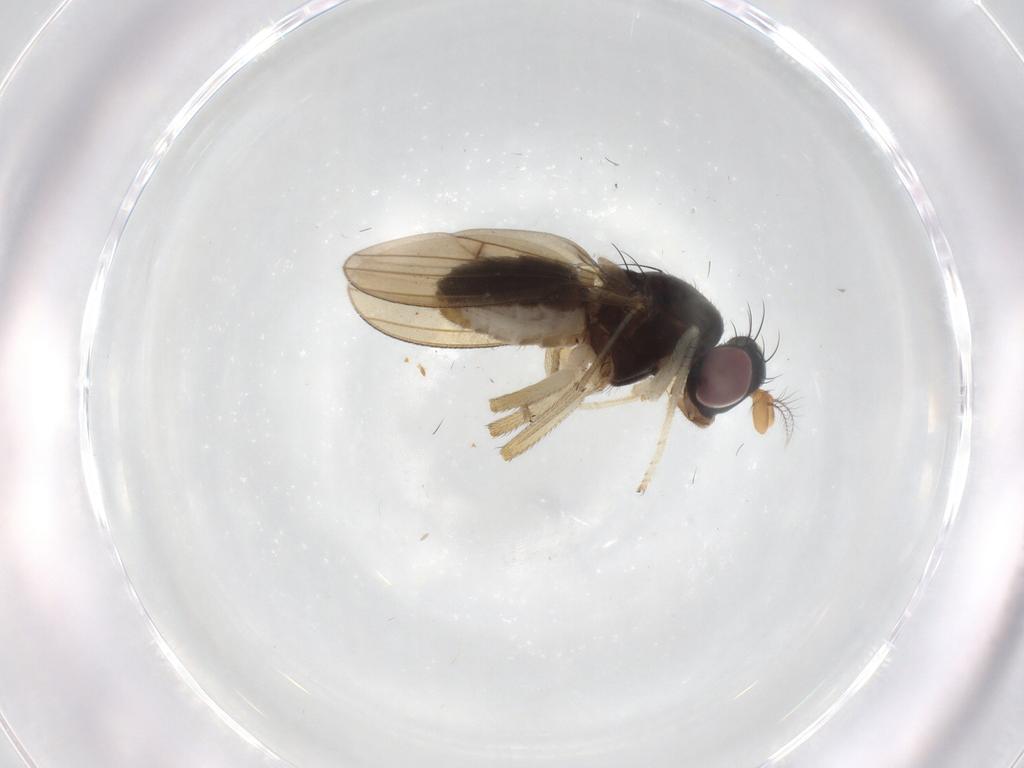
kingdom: Animalia
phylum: Arthropoda
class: Insecta
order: Diptera
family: Syrphidae
